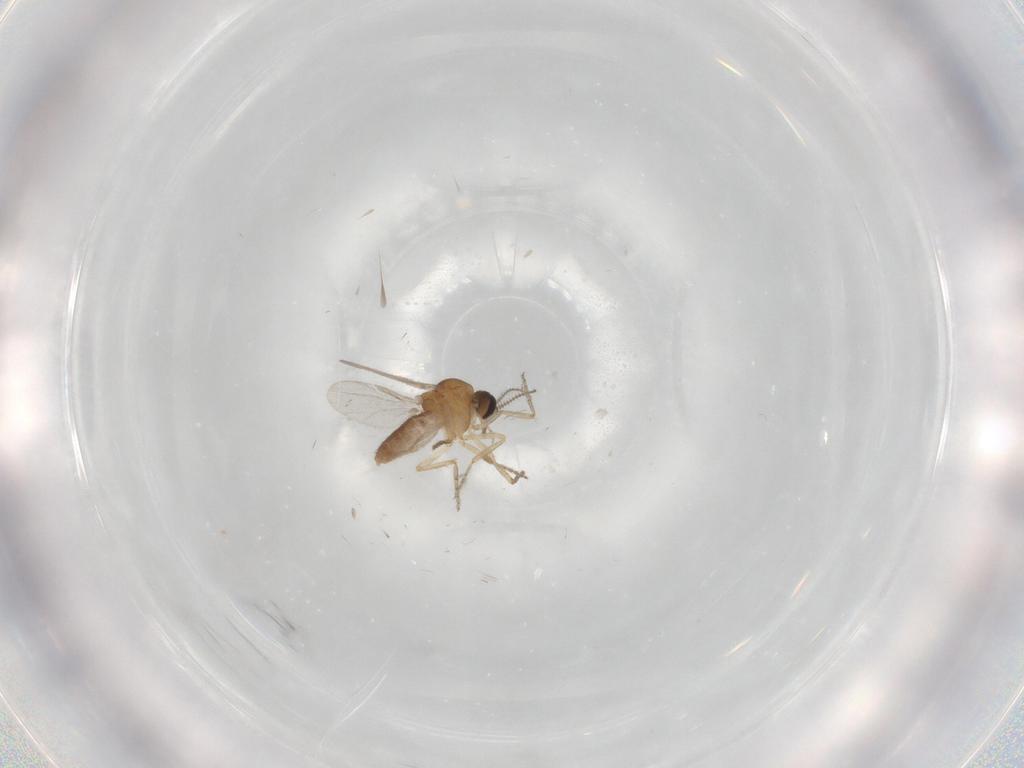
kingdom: Animalia
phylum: Arthropoda
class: Insecta
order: Diptera
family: Ceratopogonidae
